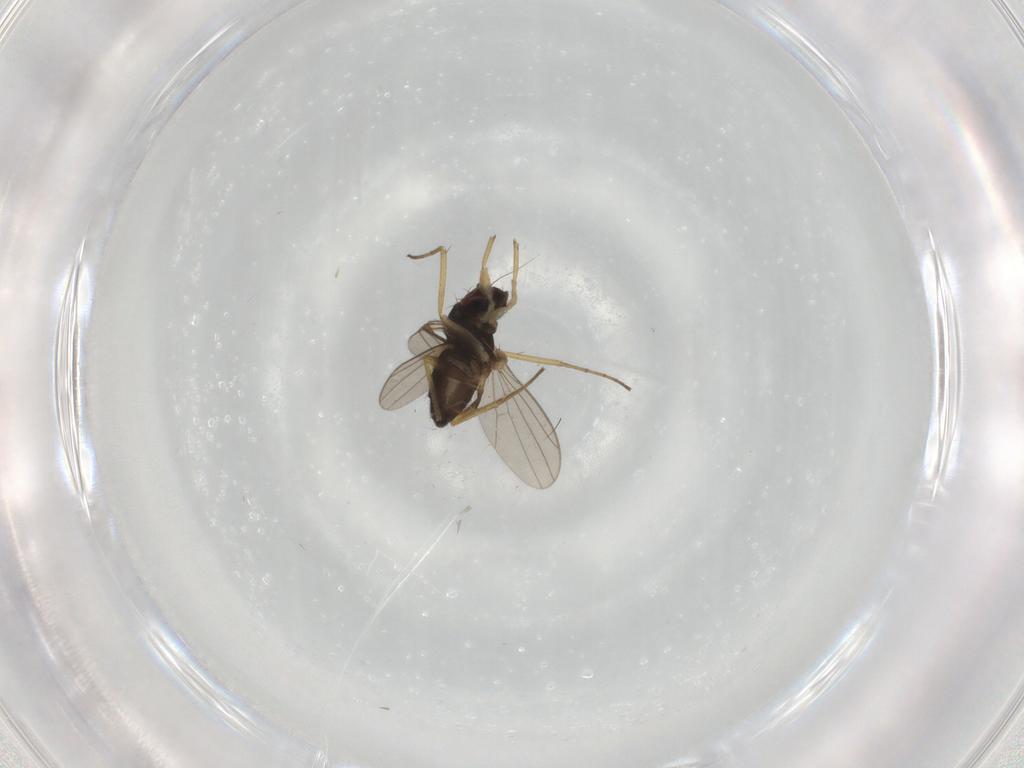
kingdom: Animalia
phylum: Arthropoda
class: Insecta
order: Diptera
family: Dolichopodidae
